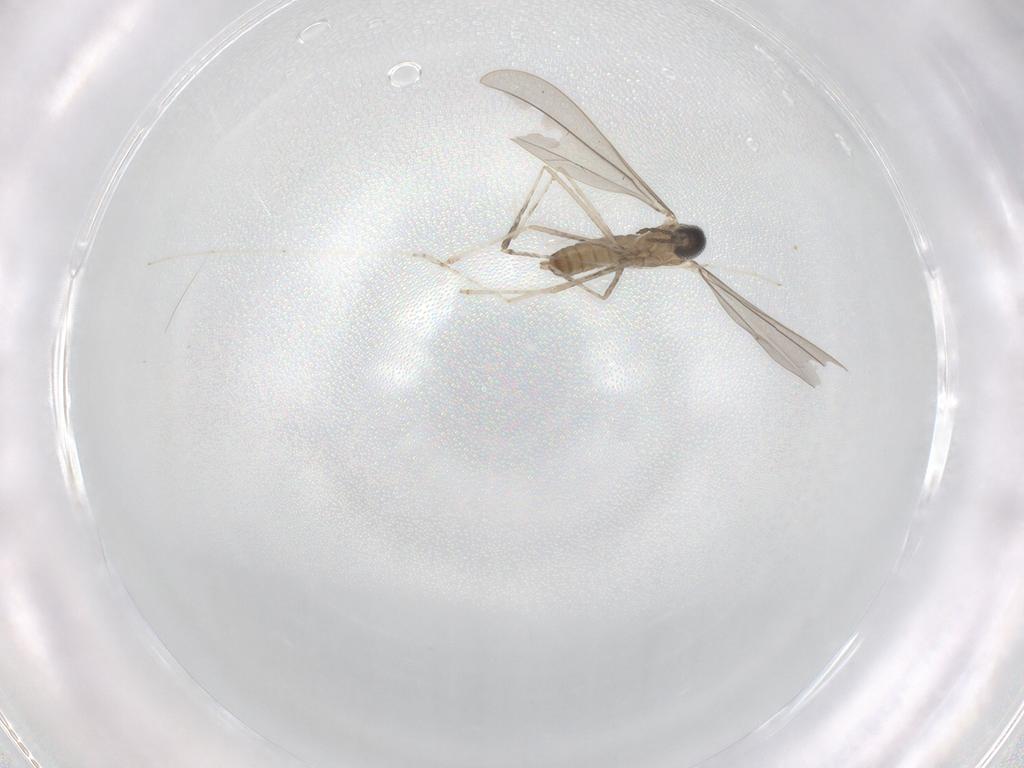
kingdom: Animalia
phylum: Arthropoda
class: Insecta
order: Diptera
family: Cecidomyiidae
